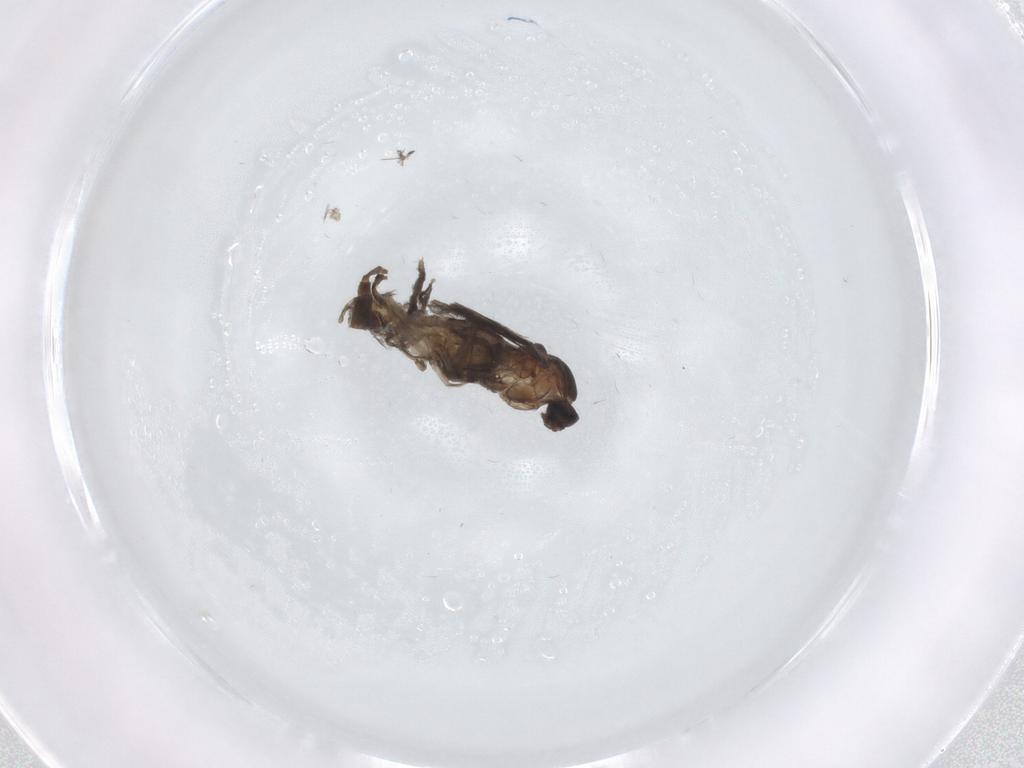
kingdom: Animalia
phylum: Arthropoda
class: Insecta
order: Diptera
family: Cecidomyiidae
